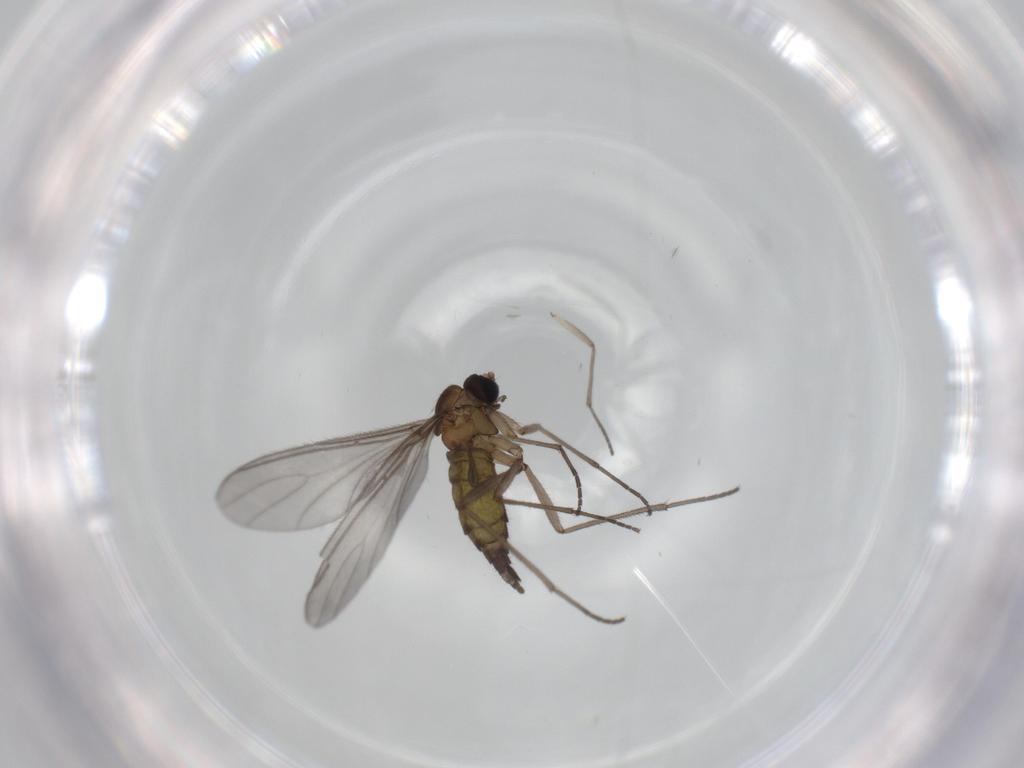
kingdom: Animalia
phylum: Arthropoda
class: Insecta
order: Diptera
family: Sciaridae
